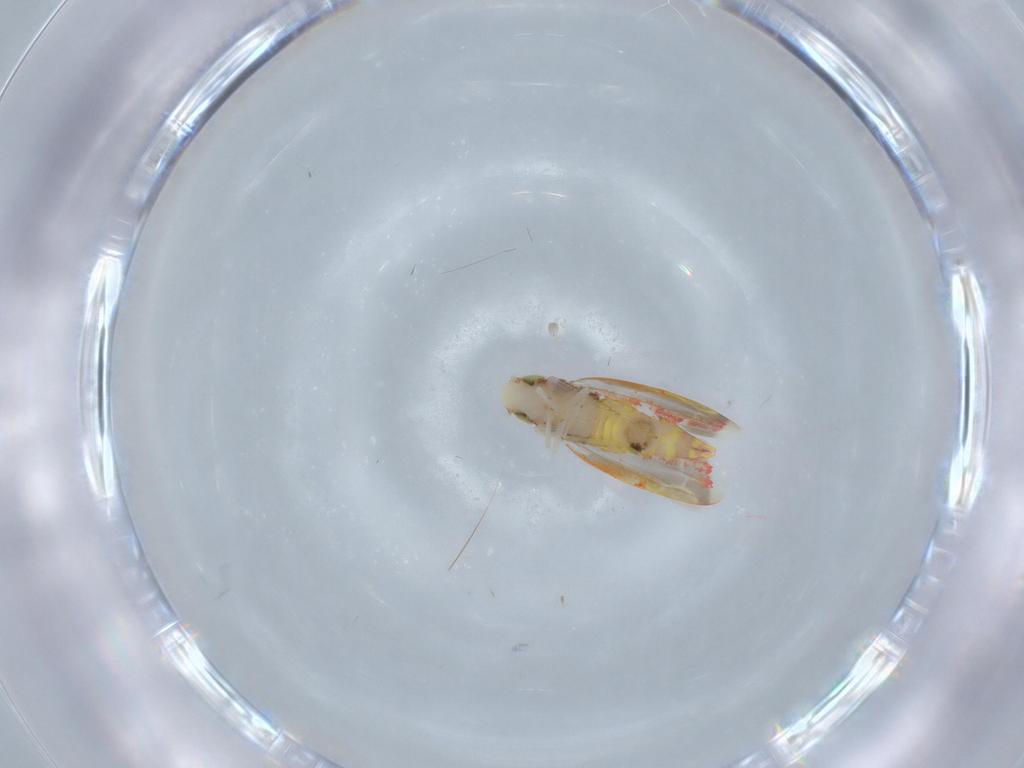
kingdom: Animalia
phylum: Arthropoda
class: Insecta
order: Hemiptera
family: Cicadellidae
